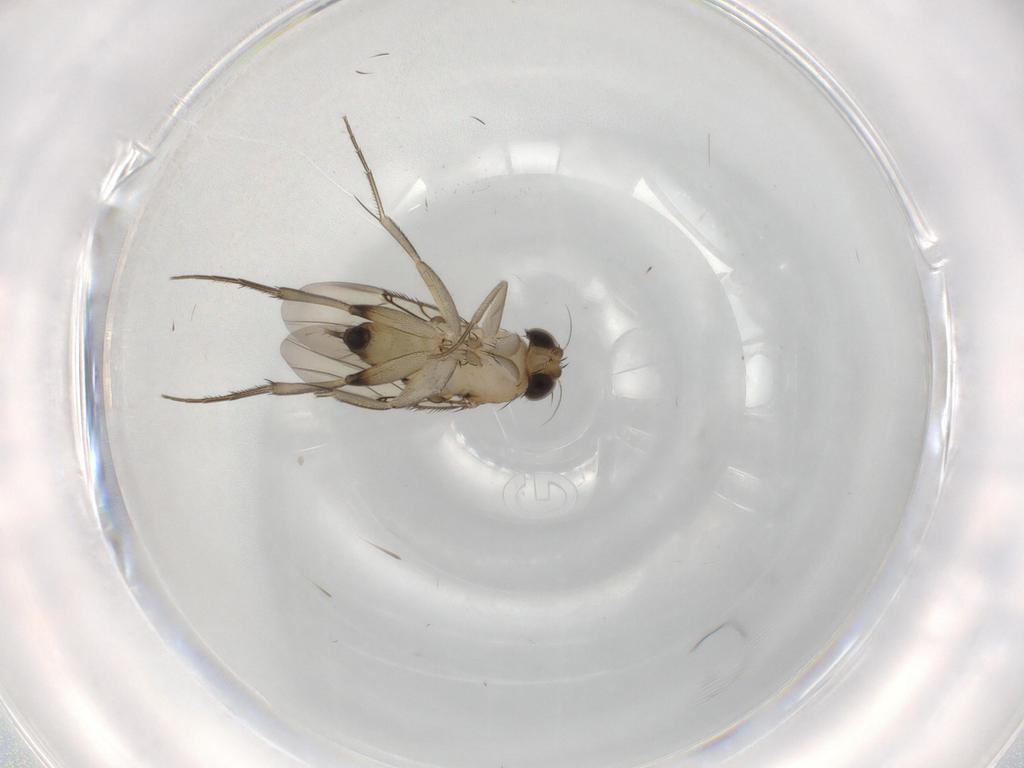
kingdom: Animalia
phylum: Arthropoda
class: Insecta
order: Diptera
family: Phoridae
